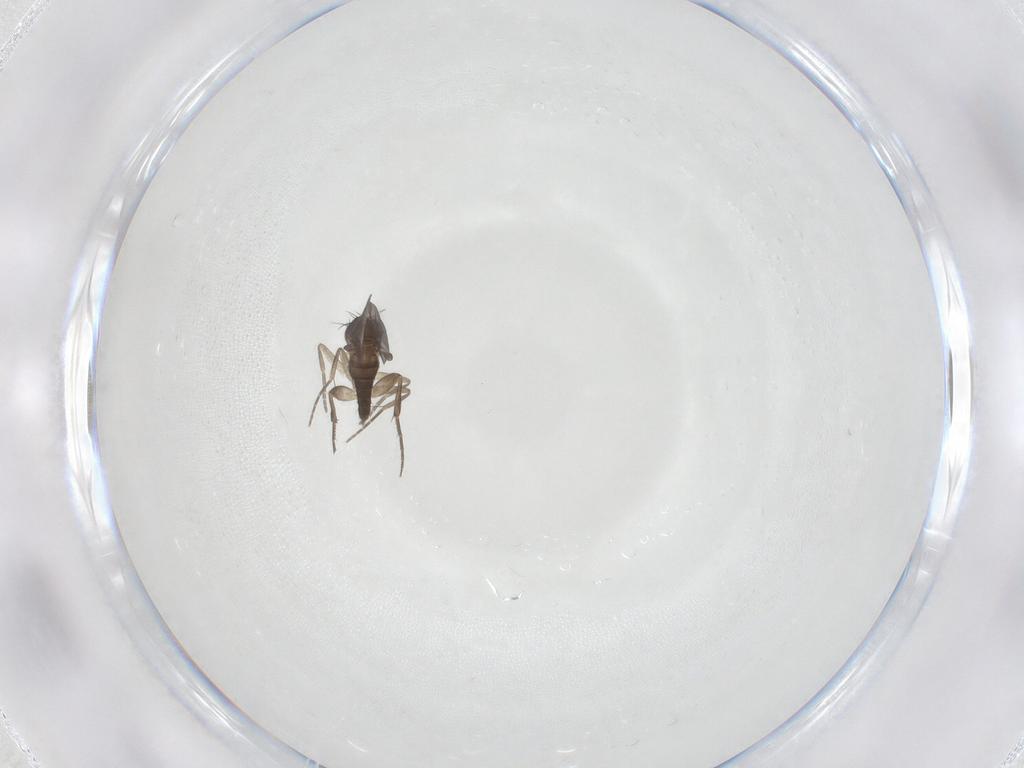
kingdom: Animalia
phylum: Arthropoda
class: Insecta
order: Diptera
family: Phoridae
